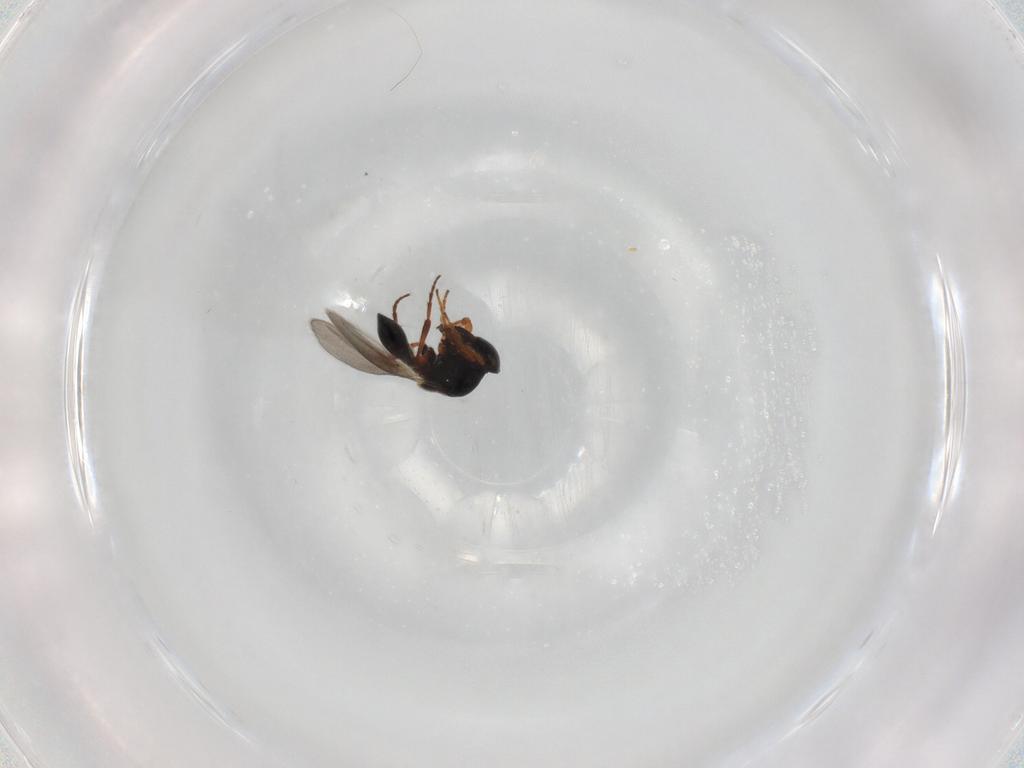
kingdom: Animalia
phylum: Arthropoda
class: Insecta
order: Hymenoptera
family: Platygastridae
